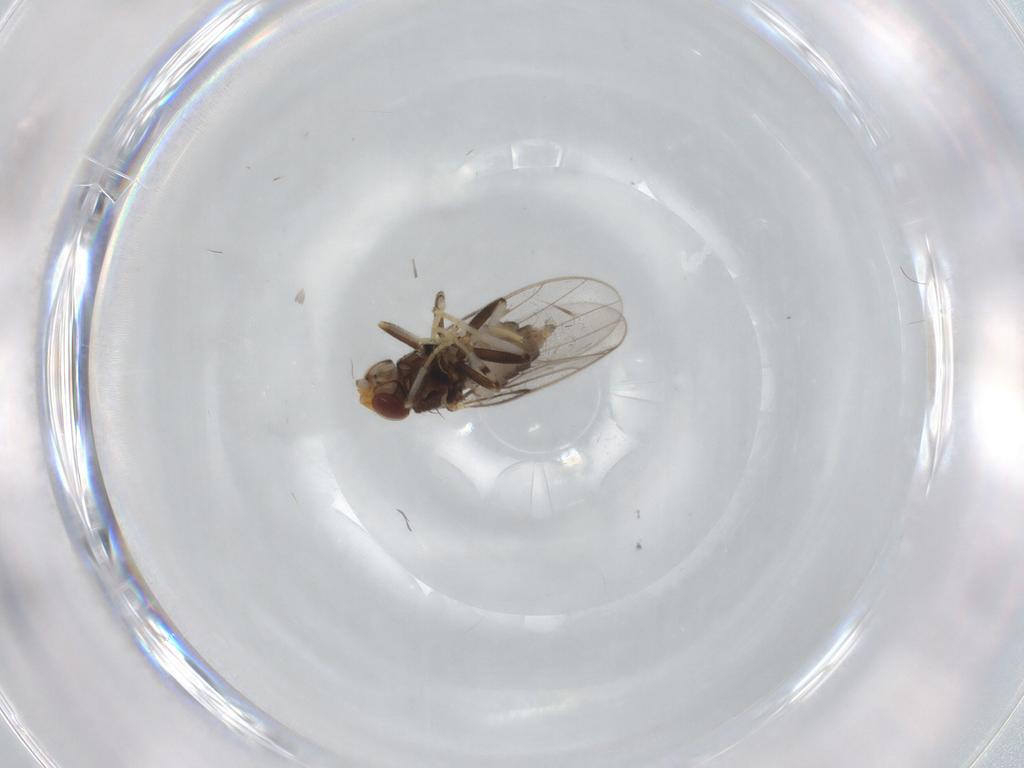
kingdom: Animalia
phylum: Arthropoda
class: Insecta
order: Diptera
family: Chloropidae
